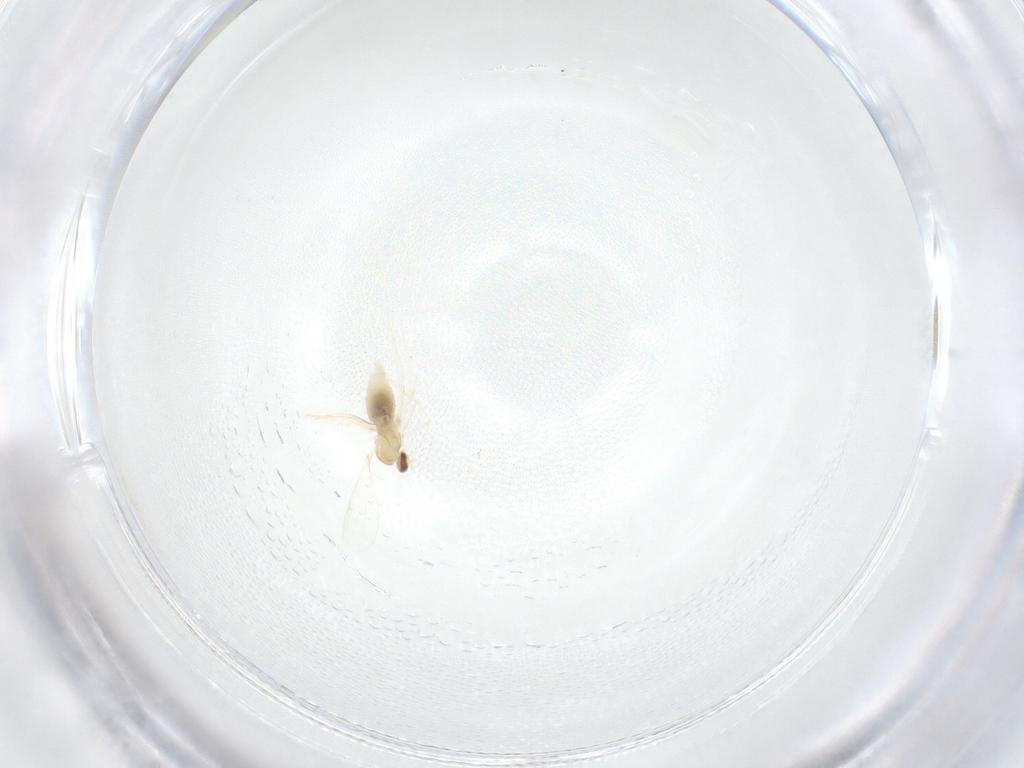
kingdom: Animalia
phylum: Arthropoda
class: Insecta
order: Diptera
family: Cecidomyiidae
